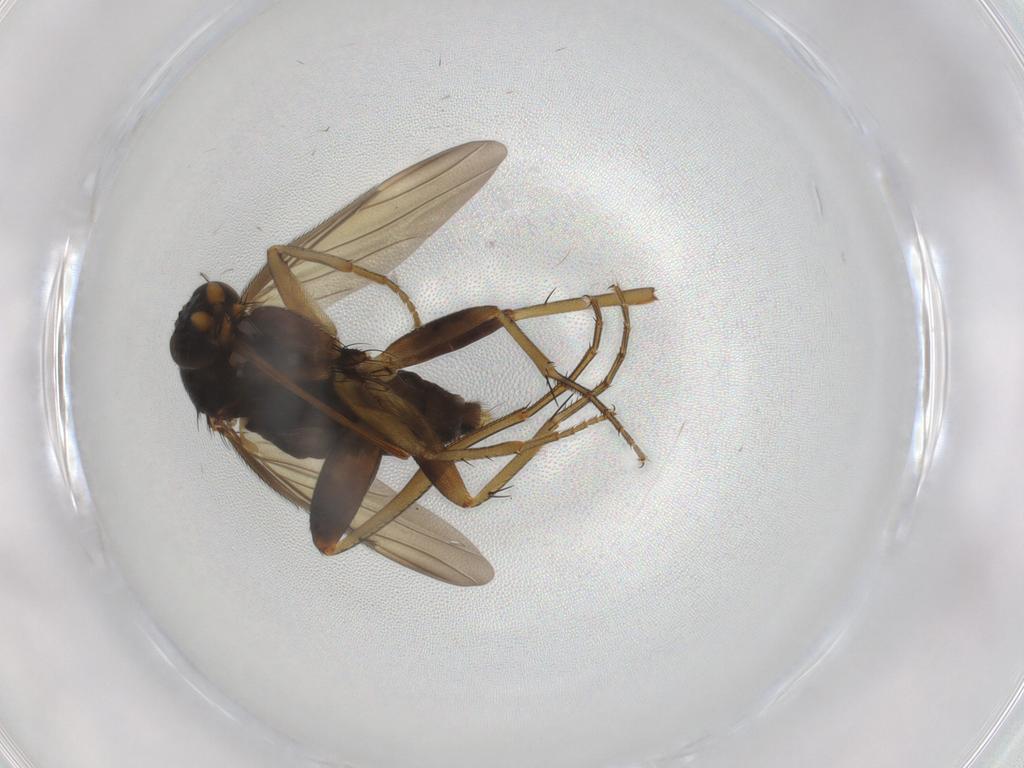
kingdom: Animalia
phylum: Arthropoda
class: Insecta
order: Diptera
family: Phoridae
